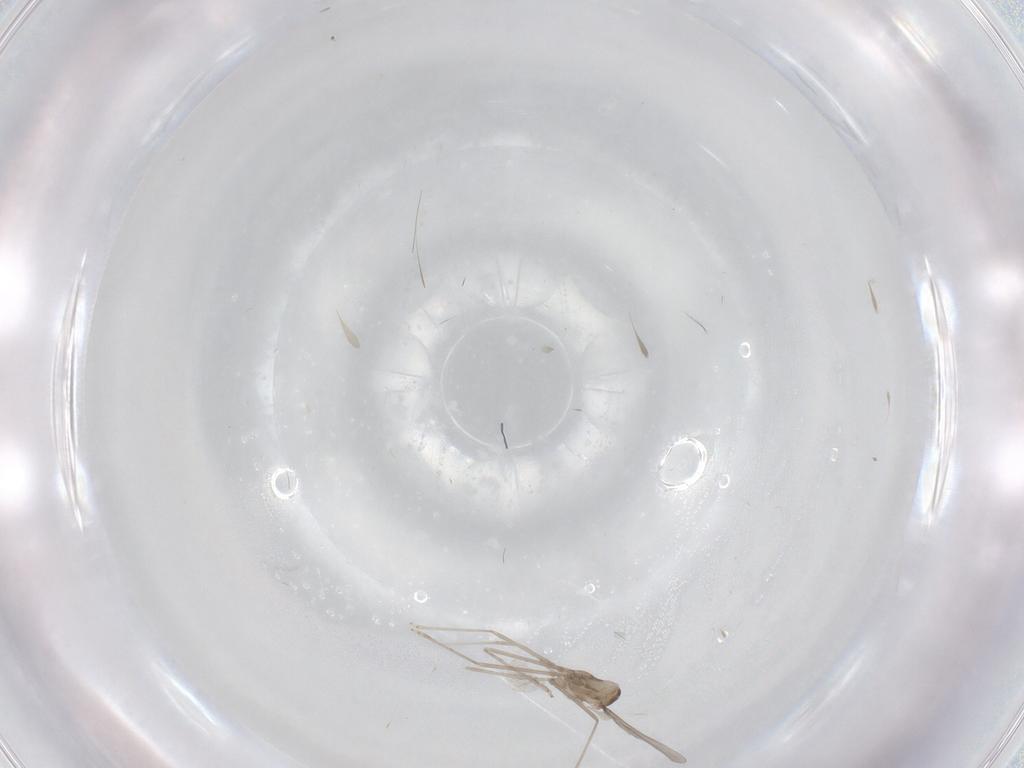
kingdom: Animalia
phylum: Arthropoda
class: Insecta
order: Diptera
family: Cecidomyiidae
